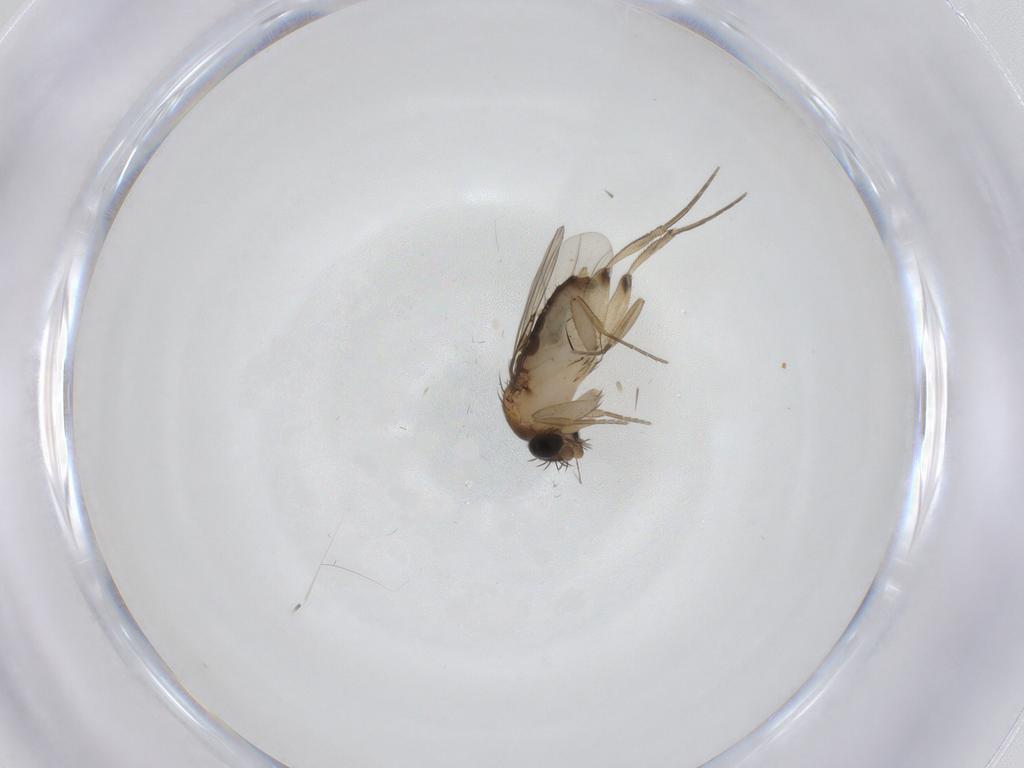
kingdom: Animalia
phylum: Arthropoda
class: Insecta
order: Diptera
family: Phoridae
